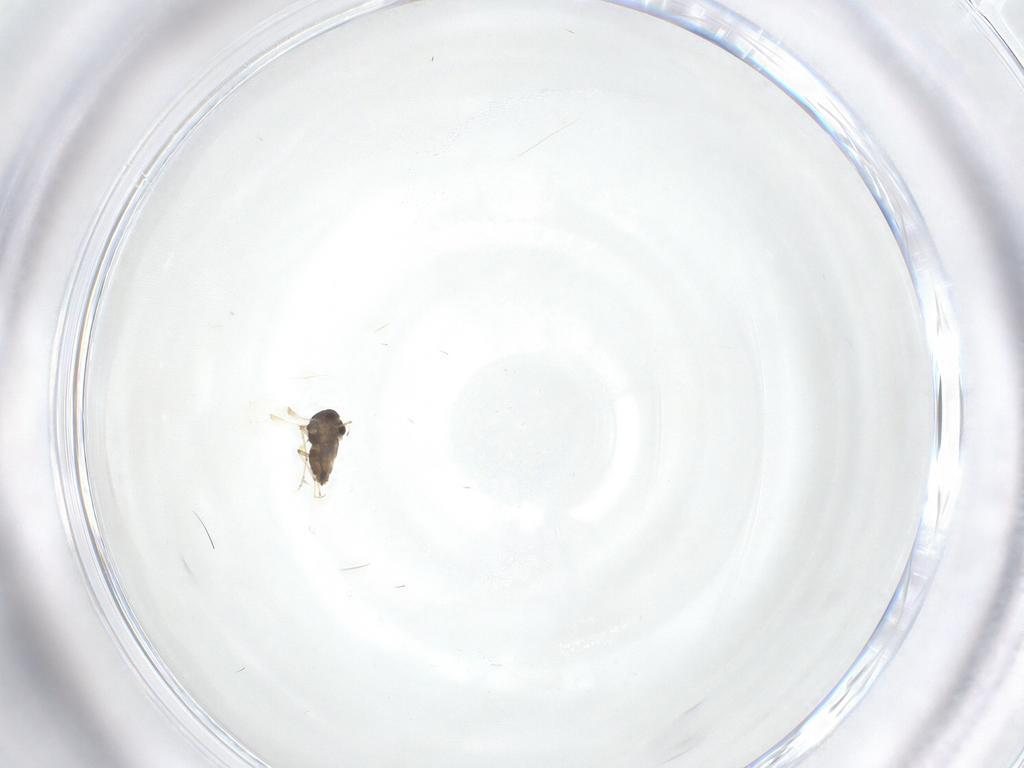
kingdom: Animalia
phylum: Arthropoda
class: Insecta
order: Diptera
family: Chironomidae
